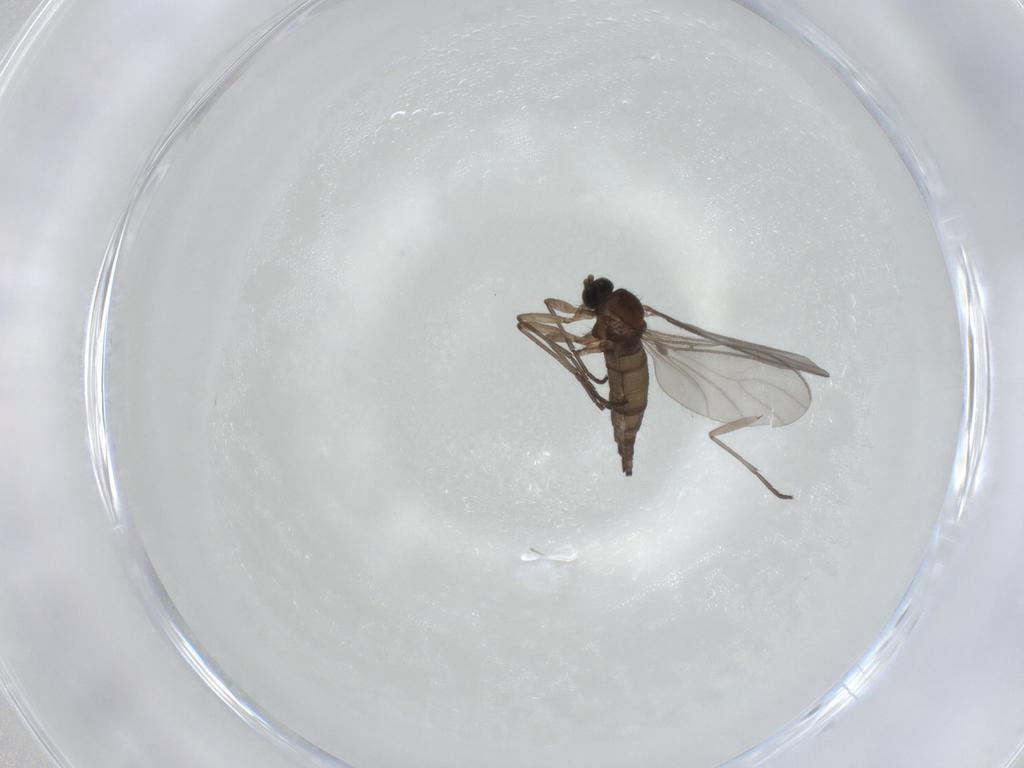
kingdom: Animalia
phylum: Arthropoda
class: Insecta
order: Diptera
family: Sciaridae
